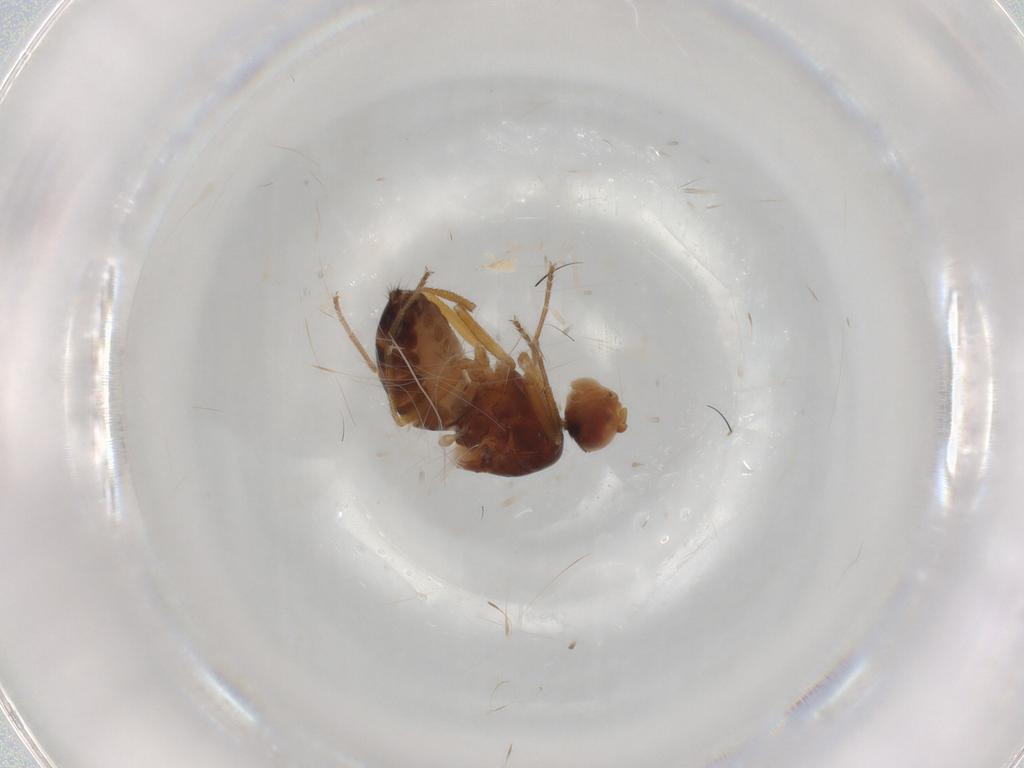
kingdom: Animalia
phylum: Arthropoda
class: Insecta
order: Diptera
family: Drosophilidae
